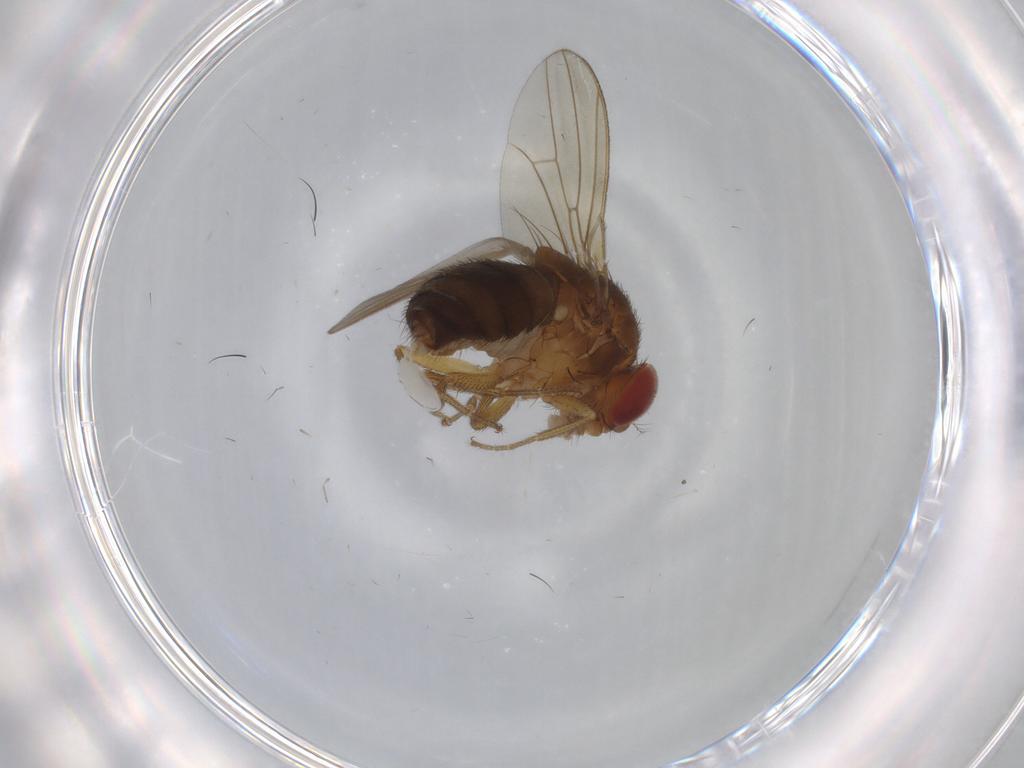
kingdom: Animalia
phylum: Arthropoda
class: Insecta
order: Diptera
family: Drosophilidae
